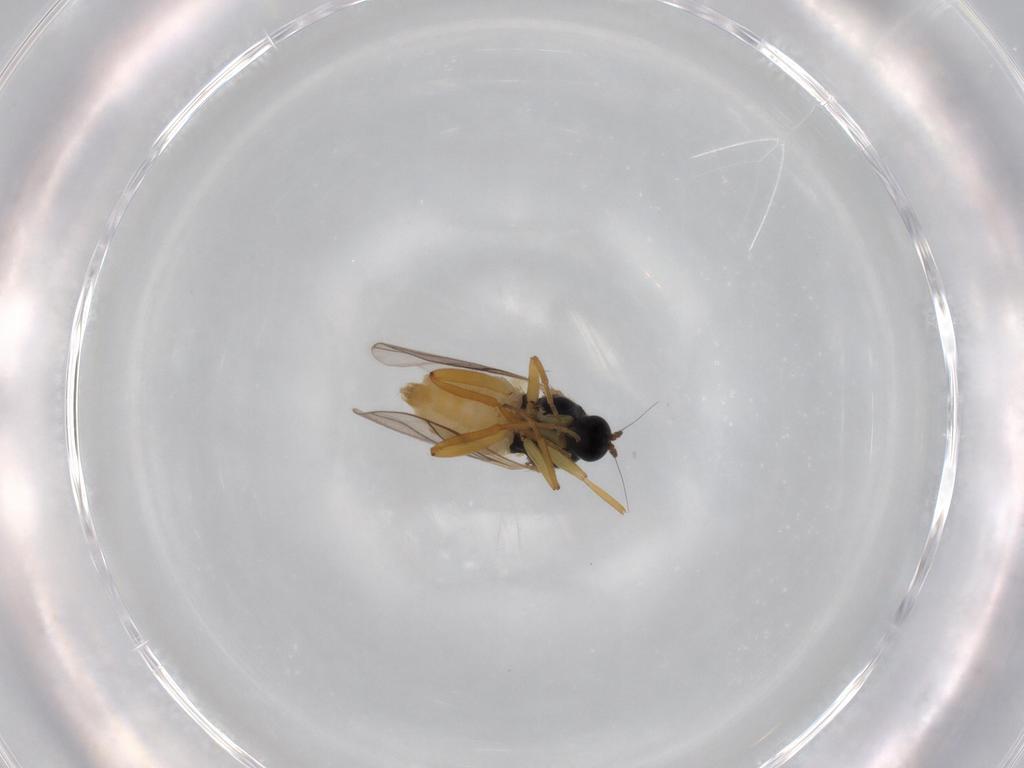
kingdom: Animalia
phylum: Arthropoda
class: Insecta
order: Diptera
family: Hybotidae
